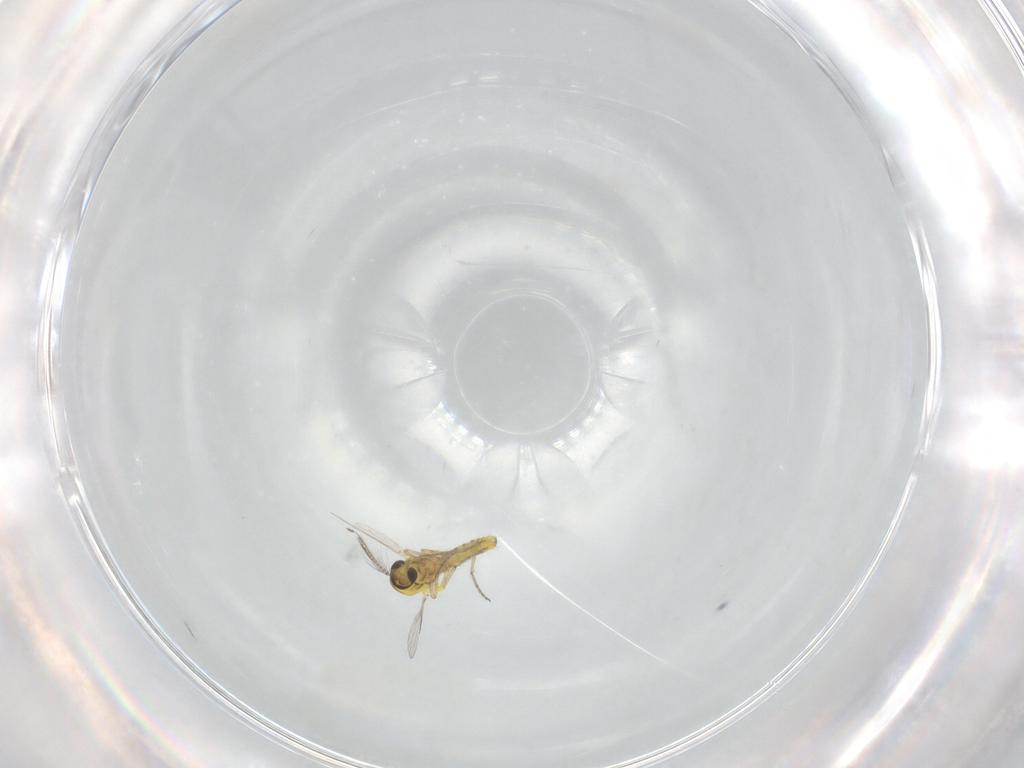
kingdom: Animalia
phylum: Arthropoda
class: Insecta
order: Diptera
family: Psychodidae
